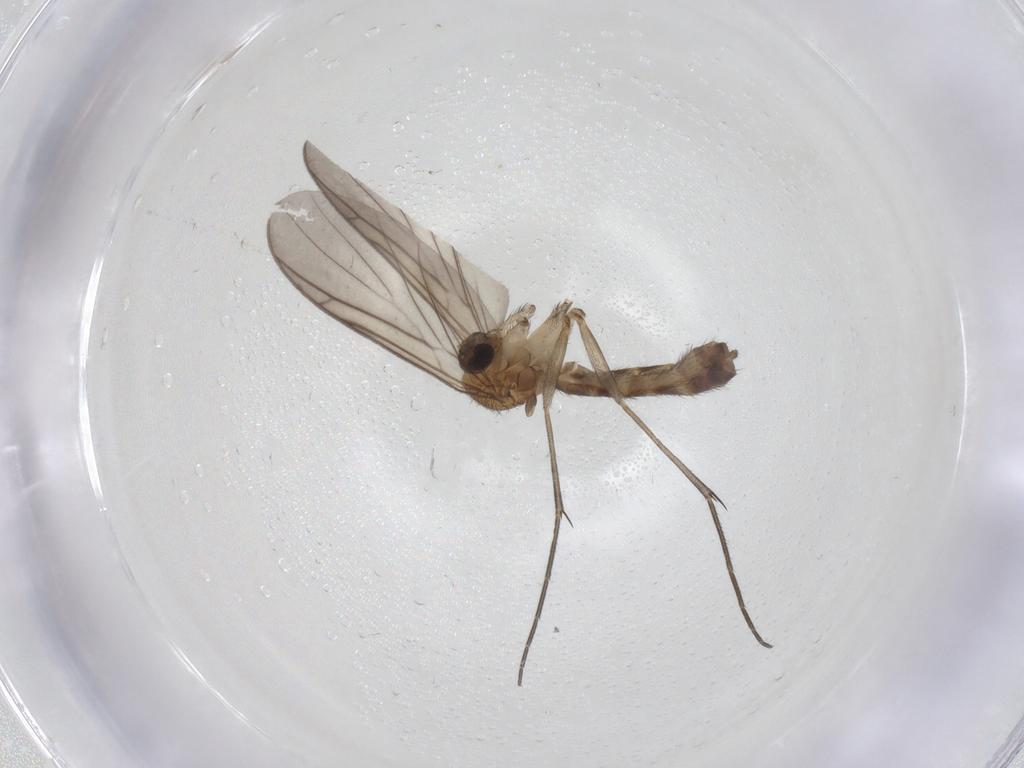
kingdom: Animalia
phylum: Arthropoda
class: Insecta
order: Diptera
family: Keroplatidae
